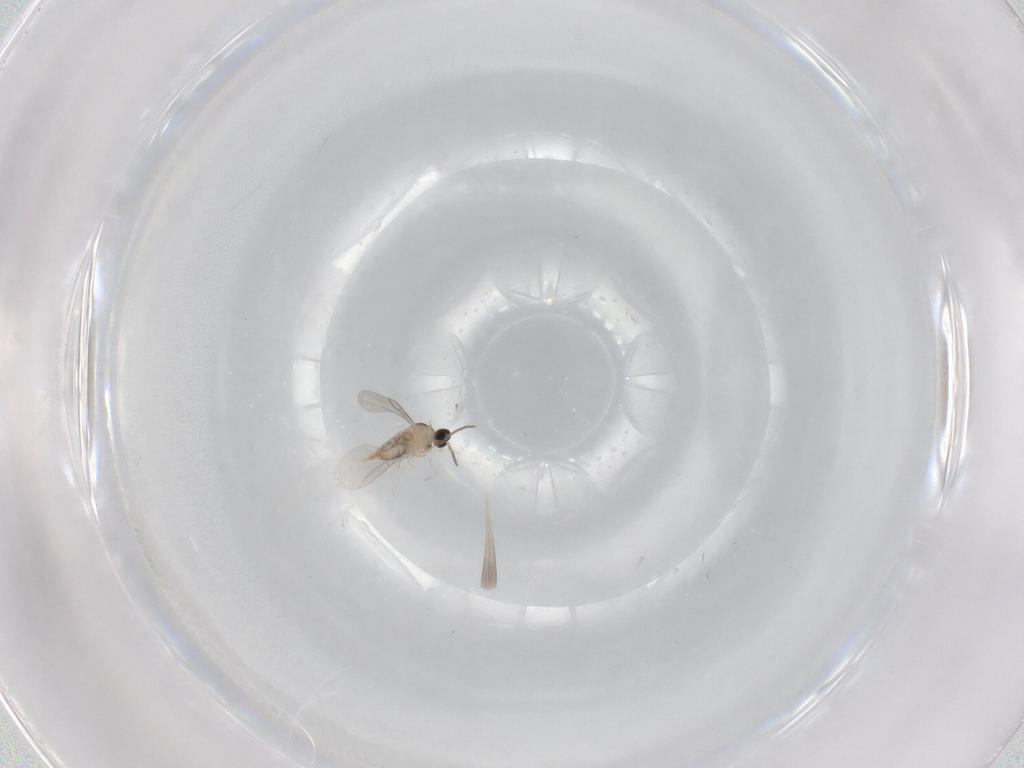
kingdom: Animalia
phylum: Arthropoda
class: Insecta
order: Diptera
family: Cecidomyiidae
